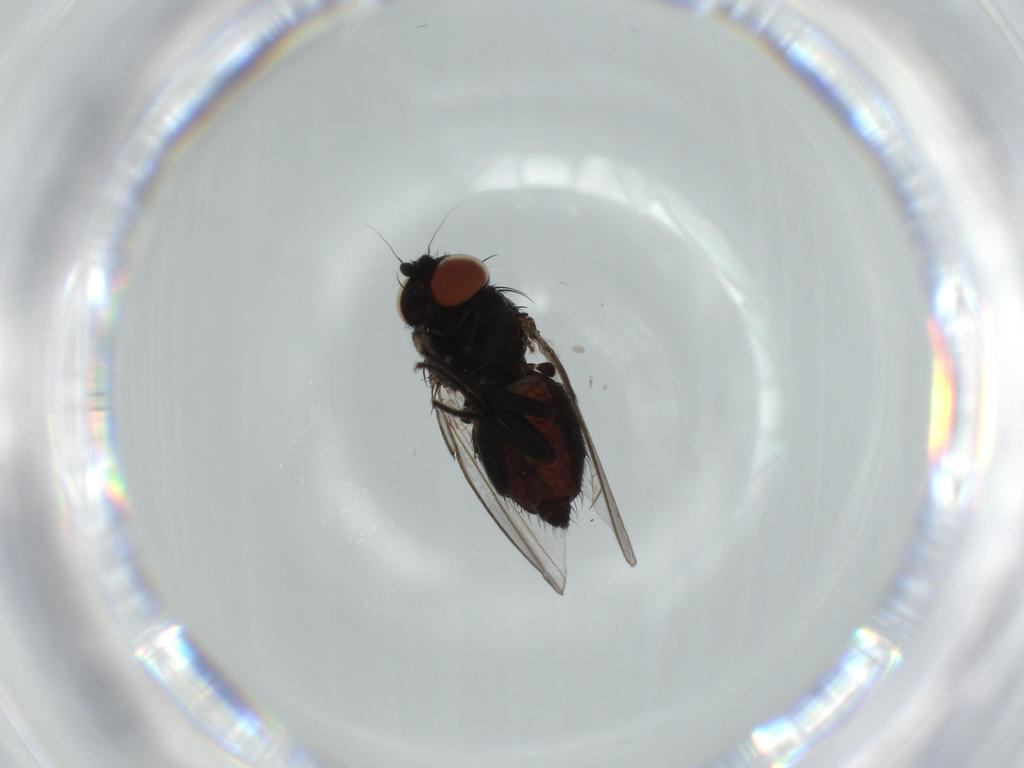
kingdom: Animalia
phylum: Arthropoda
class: Insecta
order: Diptera
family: Milichiidae
